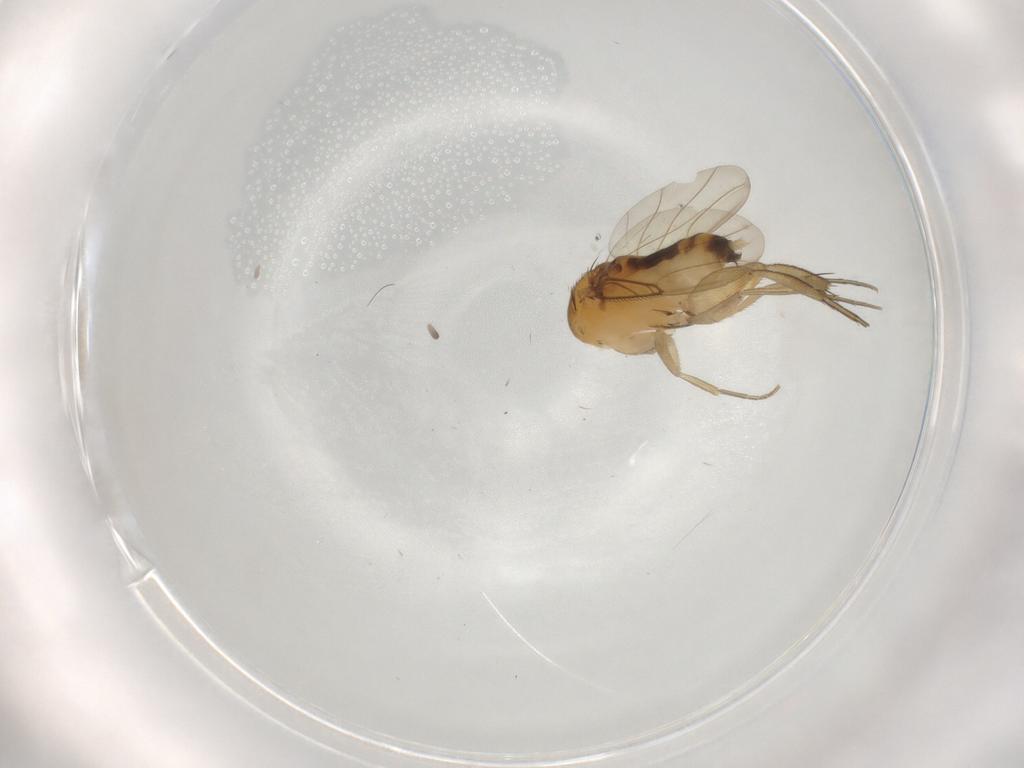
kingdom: Animalia
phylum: Arthropoda
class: Insecta
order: Diptera
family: Phoridae
